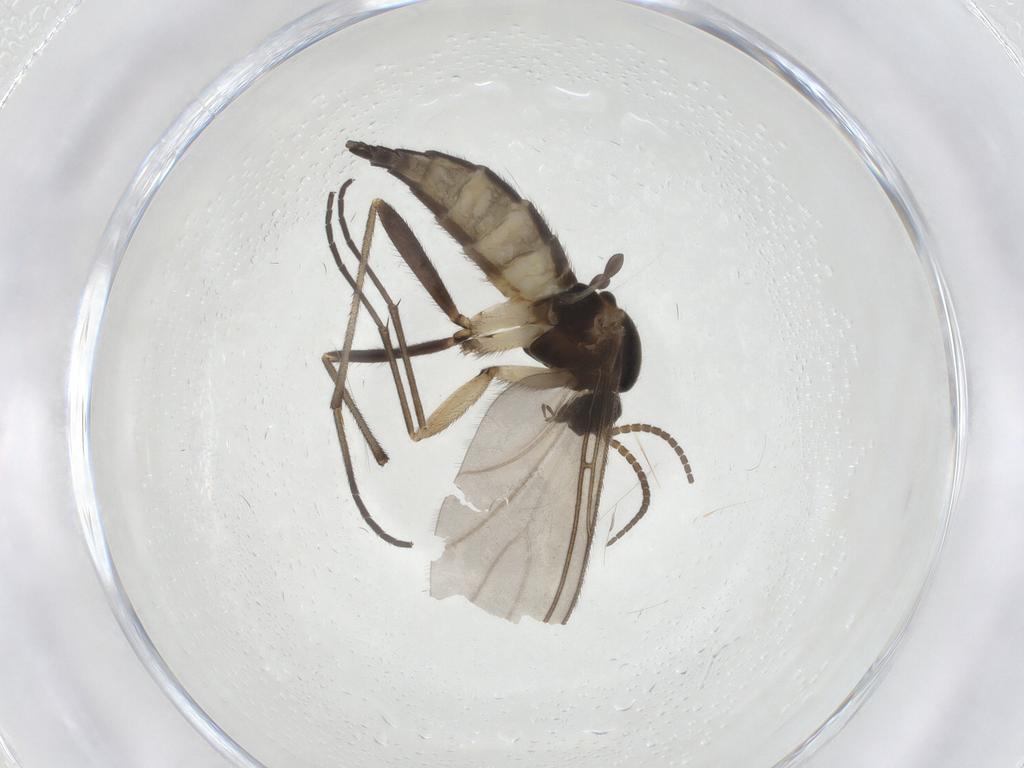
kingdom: Animalia
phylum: Arthropoda
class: Insecta
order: Diptera
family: Sciaridae
